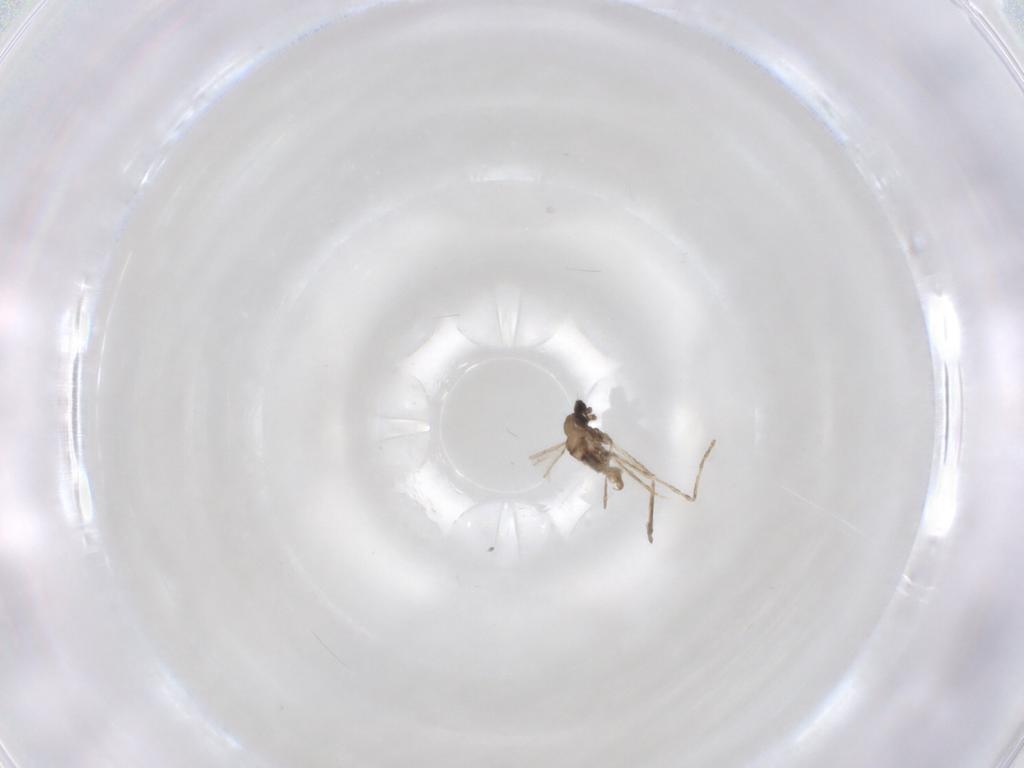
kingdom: Animalia
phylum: Arthropoda
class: Insecta
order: Diptera
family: Cecidomyiidae
